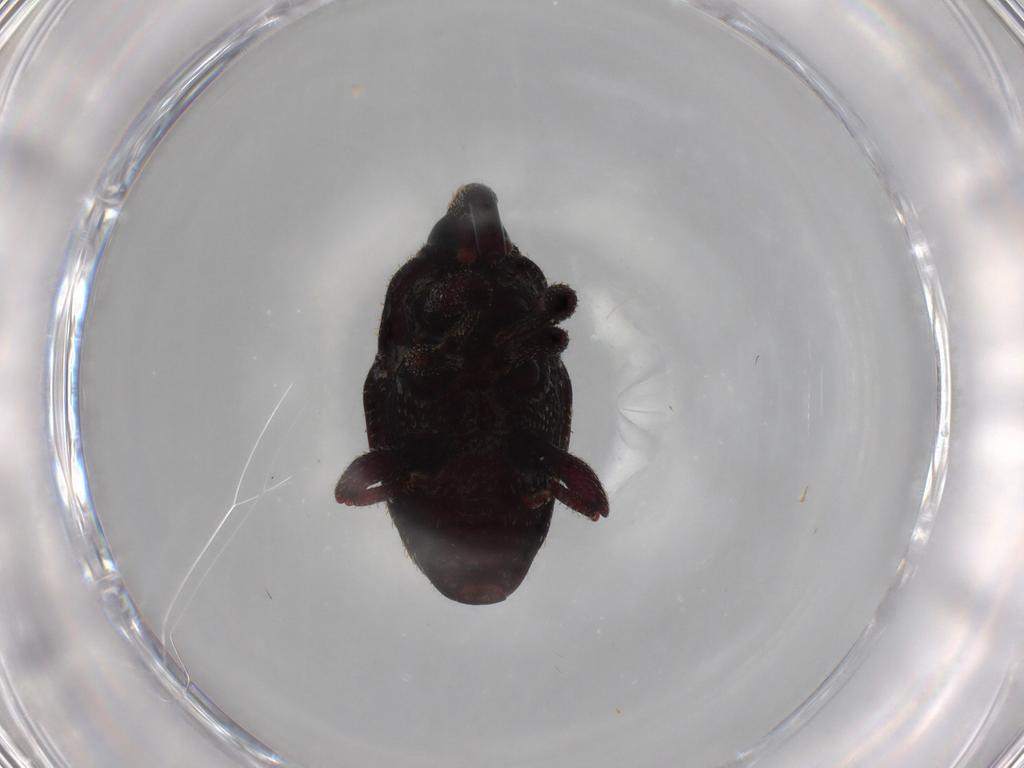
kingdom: Animalia
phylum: Arthropoda
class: Insecta
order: Coleoptera
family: Curculionidae
